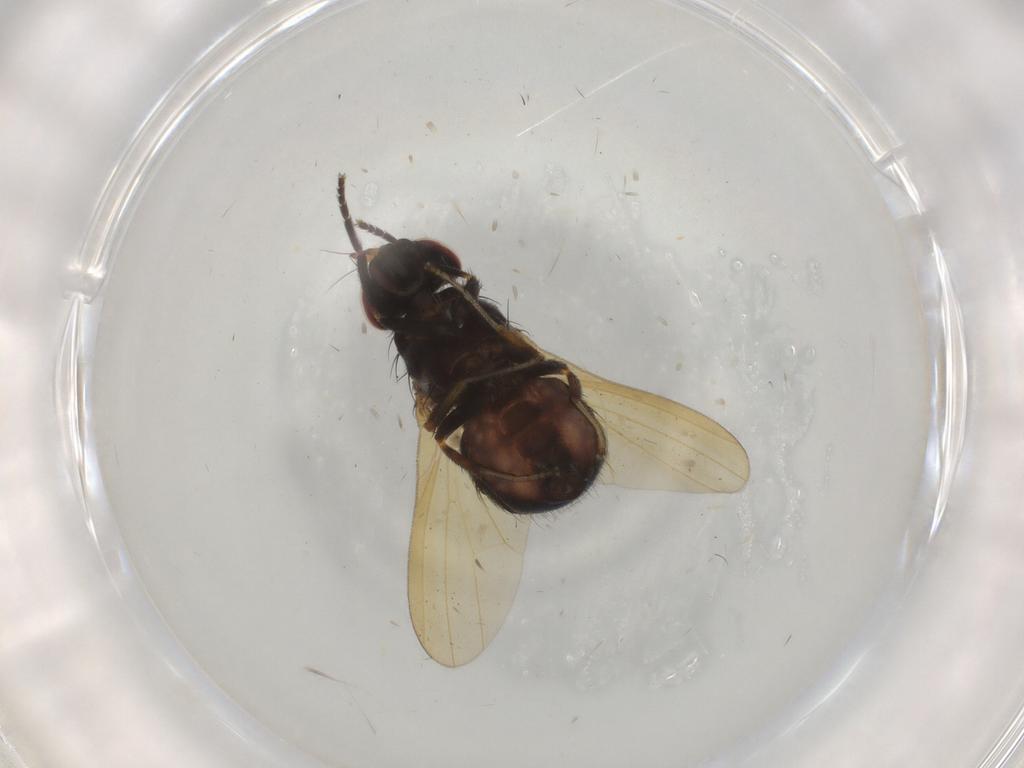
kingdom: Animalia
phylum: Arthropoda
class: Insecta
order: Diptera
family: Lauxaniidae
